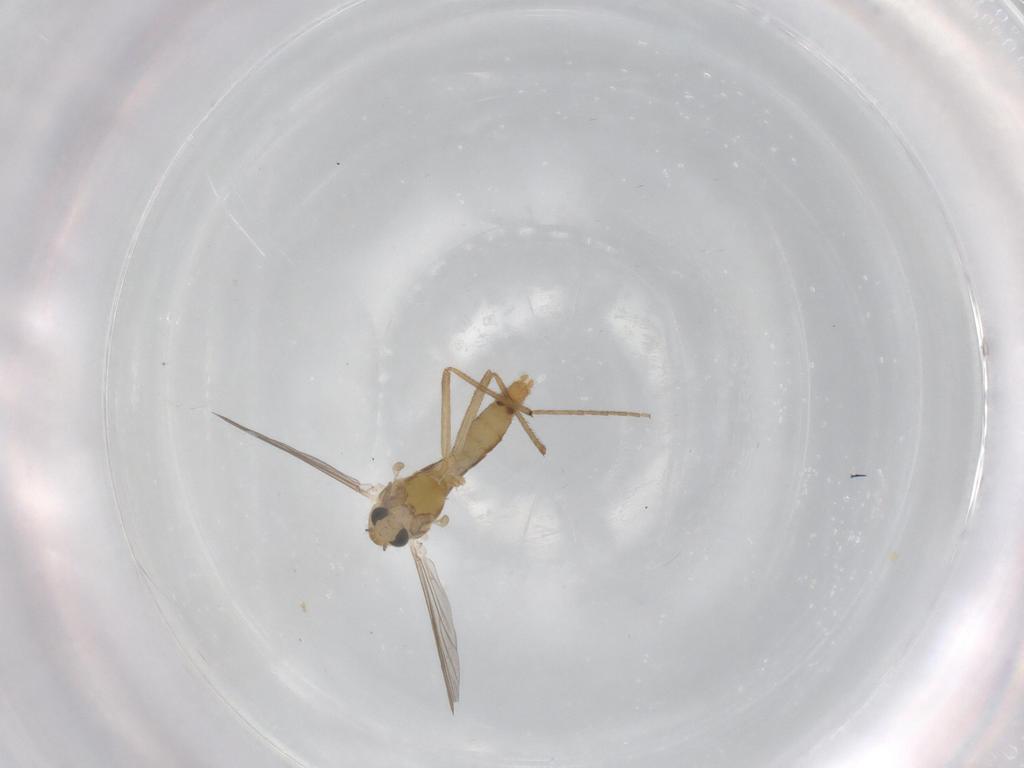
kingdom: Animalia
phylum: Arthropoda
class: Insecta
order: Diptera
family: Chironomidae
